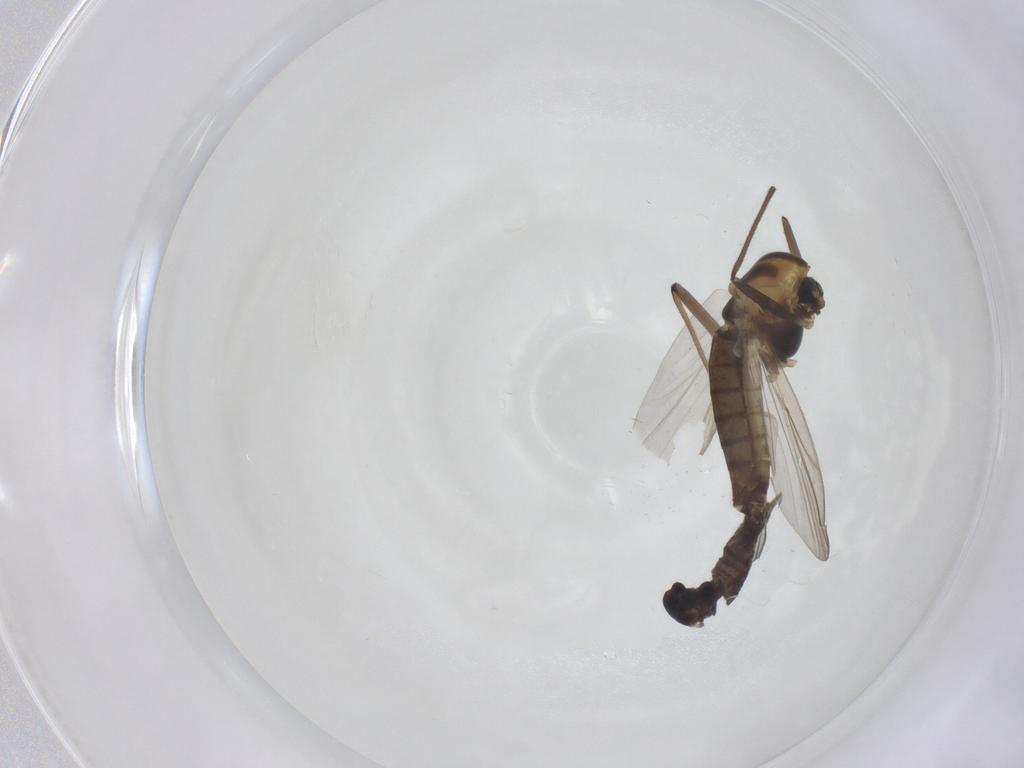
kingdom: Animalia
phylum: Arthropoda
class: Insecta
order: Diptera
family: Chironomidae
